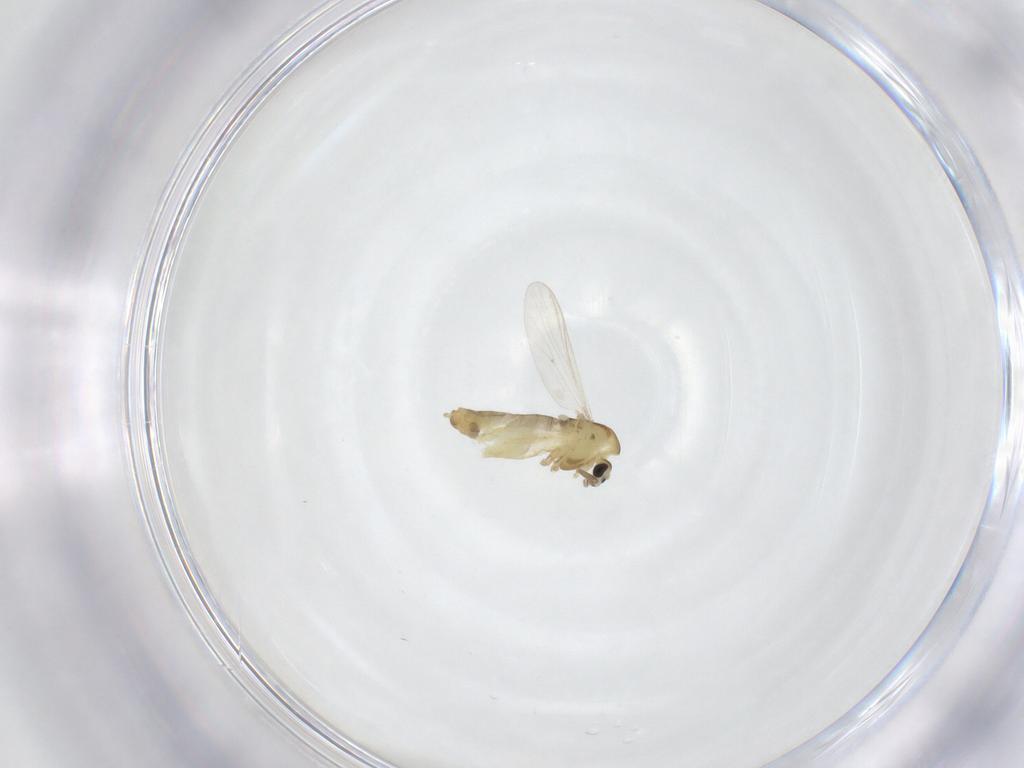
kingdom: Animalia
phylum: Arthropoda
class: Insecta
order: Diptera
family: Chironomidae
